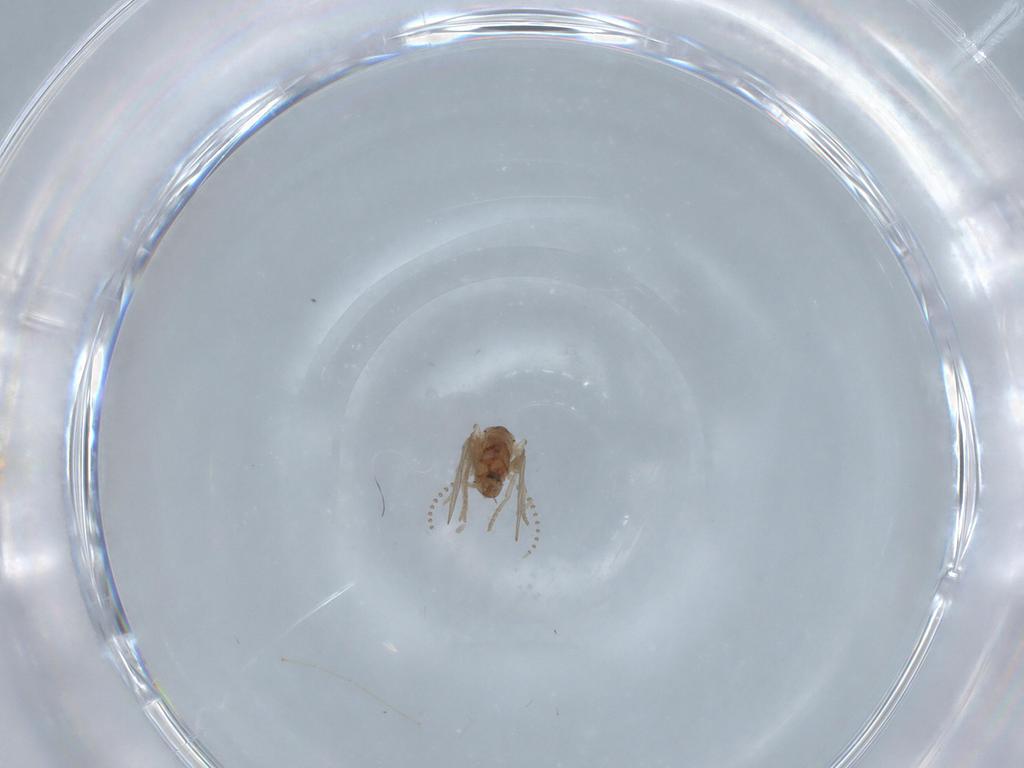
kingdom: Animalia
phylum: Arthropoda
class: Insecta
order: Diptera
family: Psychodidae
